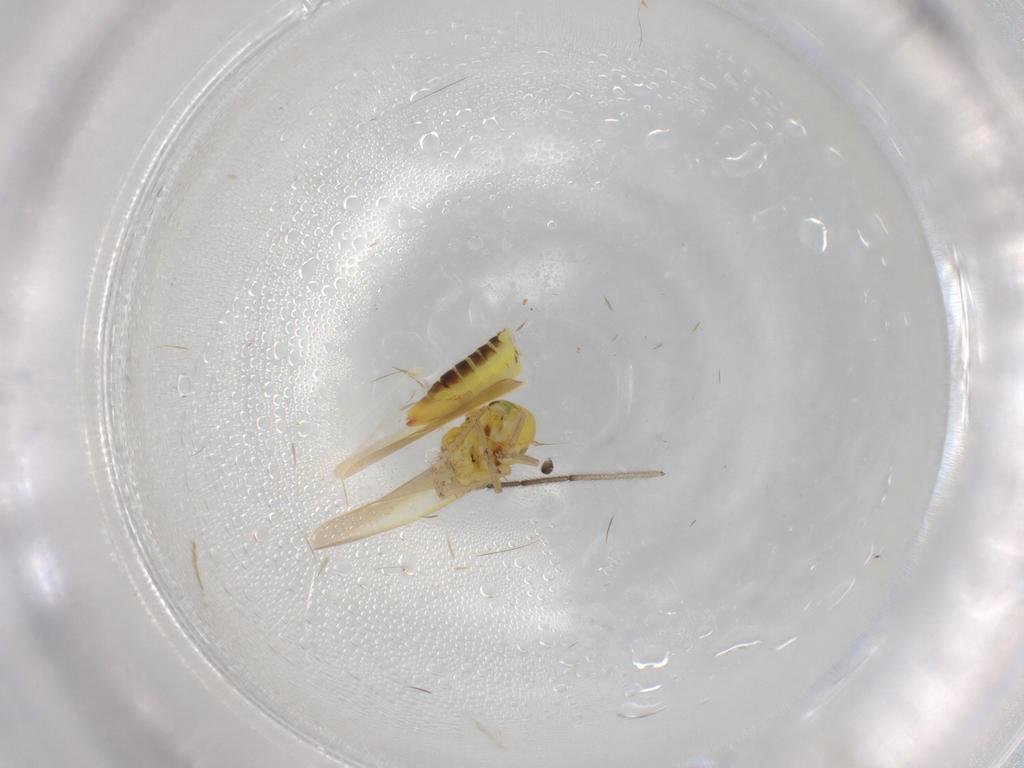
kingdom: Animalia
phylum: Arthropoda
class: Insecta
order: Hemiptera
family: Cicadellidae
